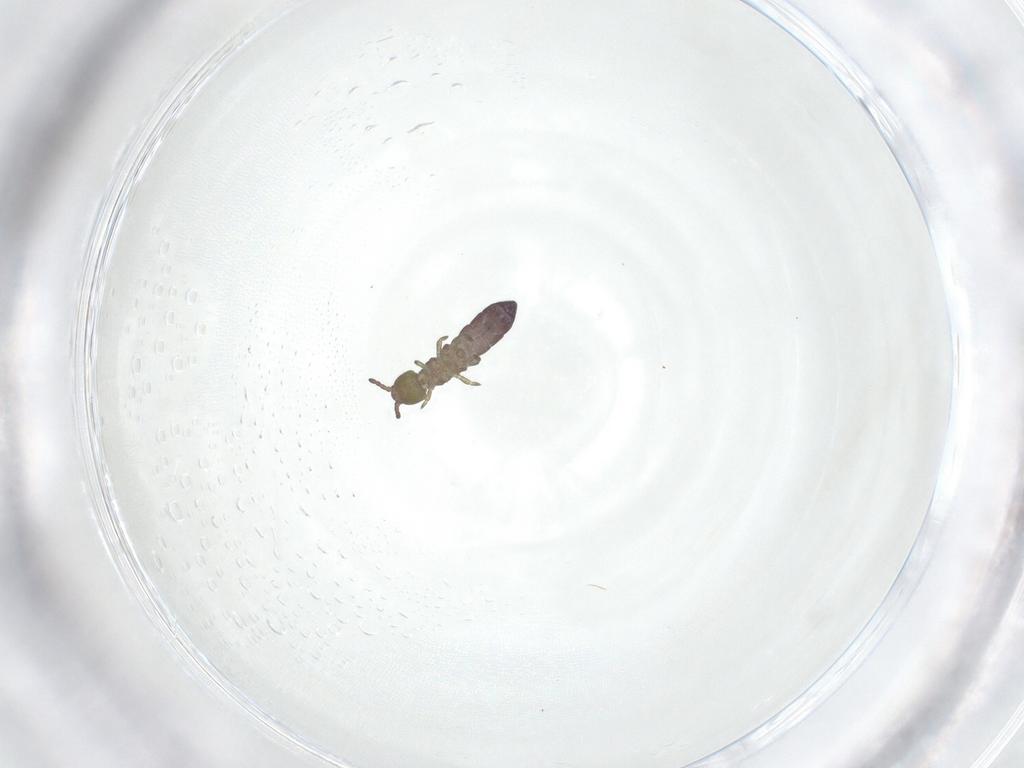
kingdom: Animalia
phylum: Arthropoda
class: Collembola
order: Entomobryomorpha
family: Isotomidae
